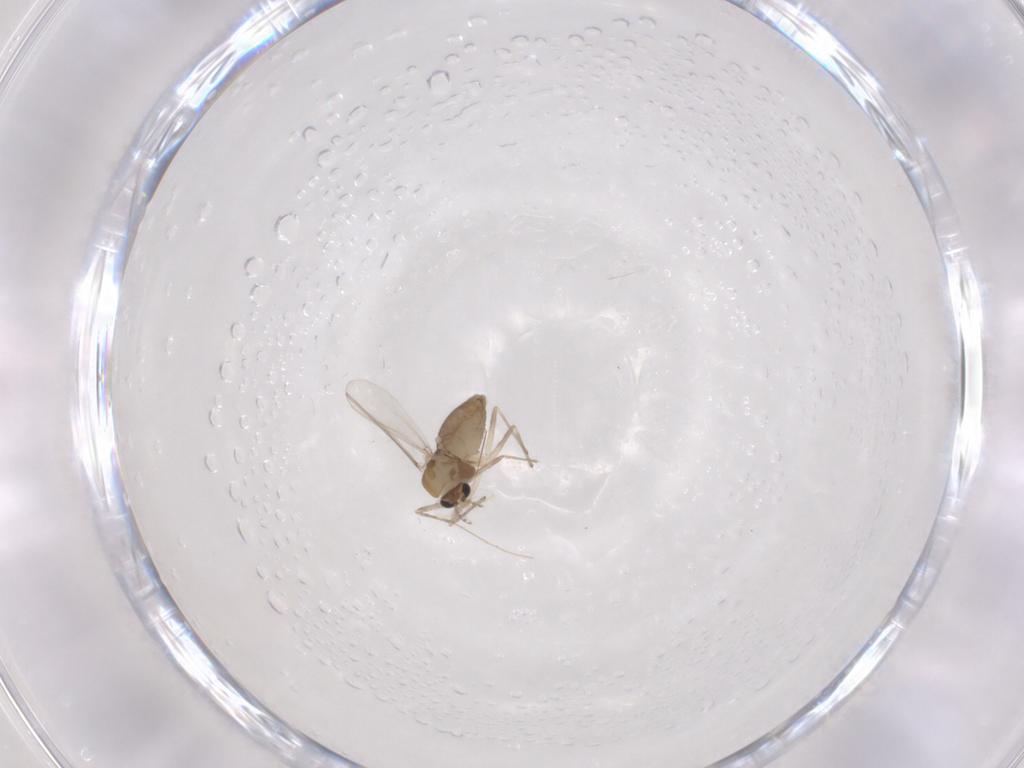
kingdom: Animalia
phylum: Arthropoda
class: Insecta
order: Diptera
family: Chironomidae
